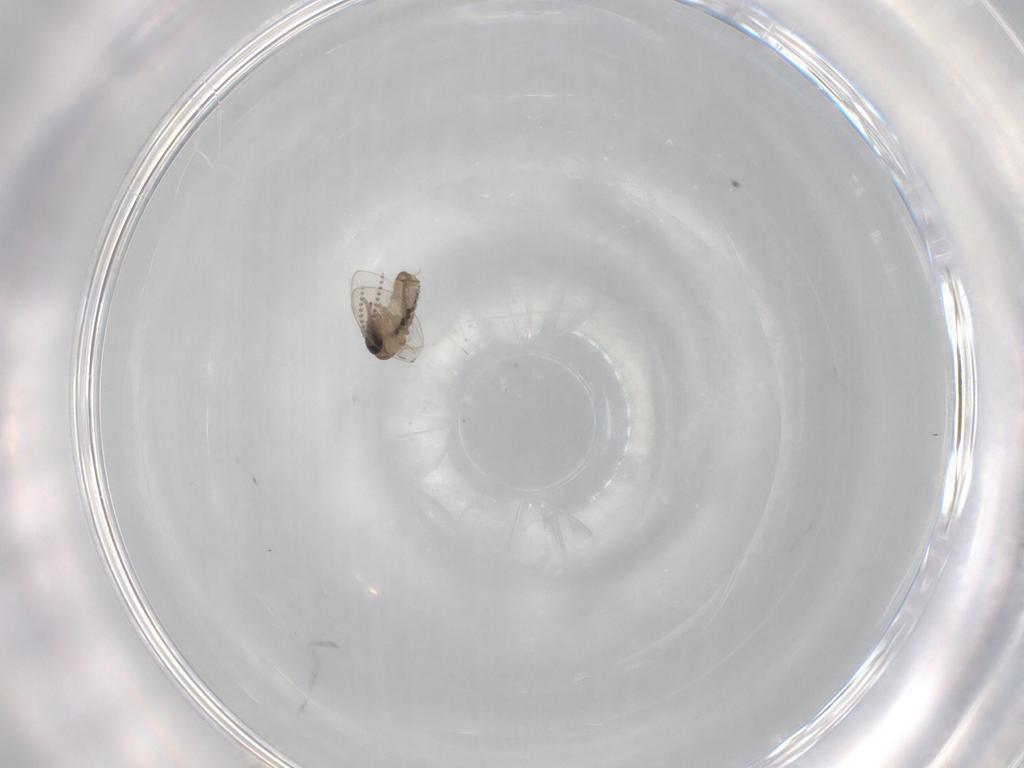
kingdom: Animalia
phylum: Arthropoda
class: Insecta
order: Diptera
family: Psychodidae
